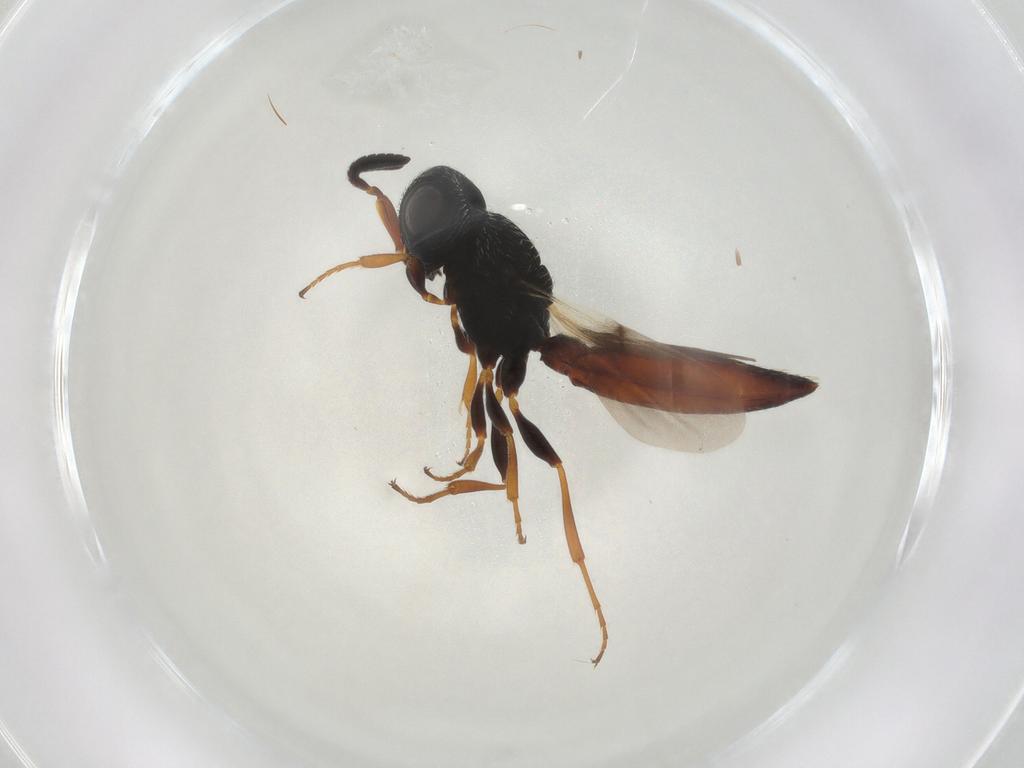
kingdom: Animalia
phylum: Arthropoda
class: Insecta
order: Hymenoptera
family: Scelionidae
